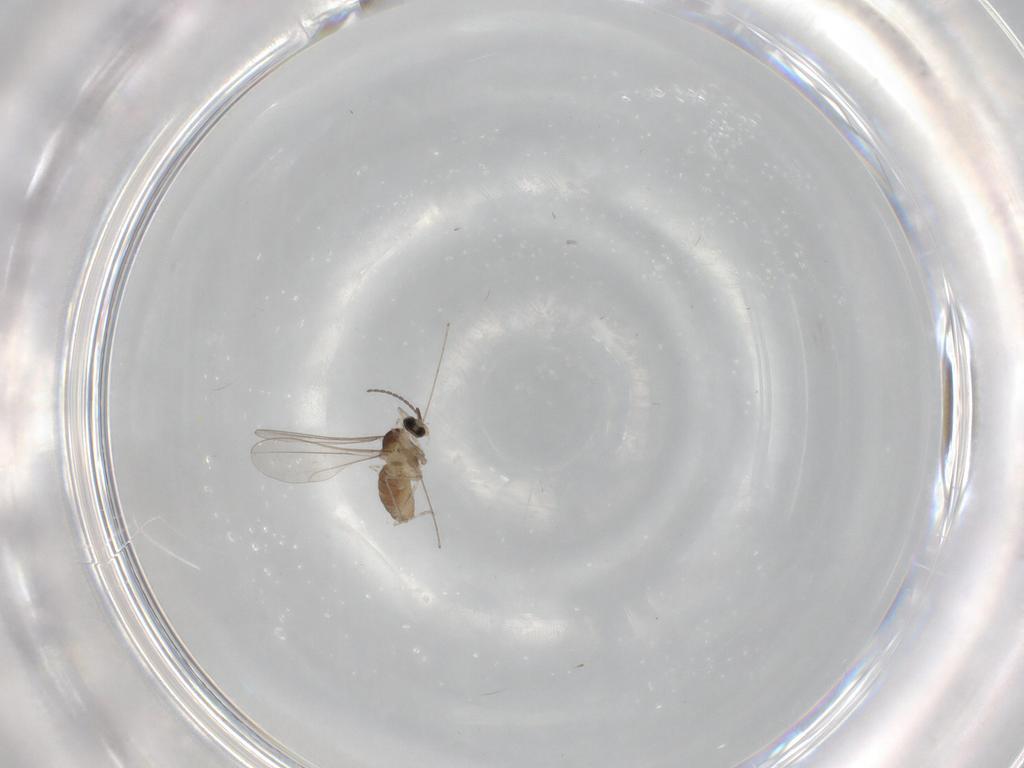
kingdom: Animalia
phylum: Arthropoda
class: Insecta
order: Diptera
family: Cecidomyiidae
